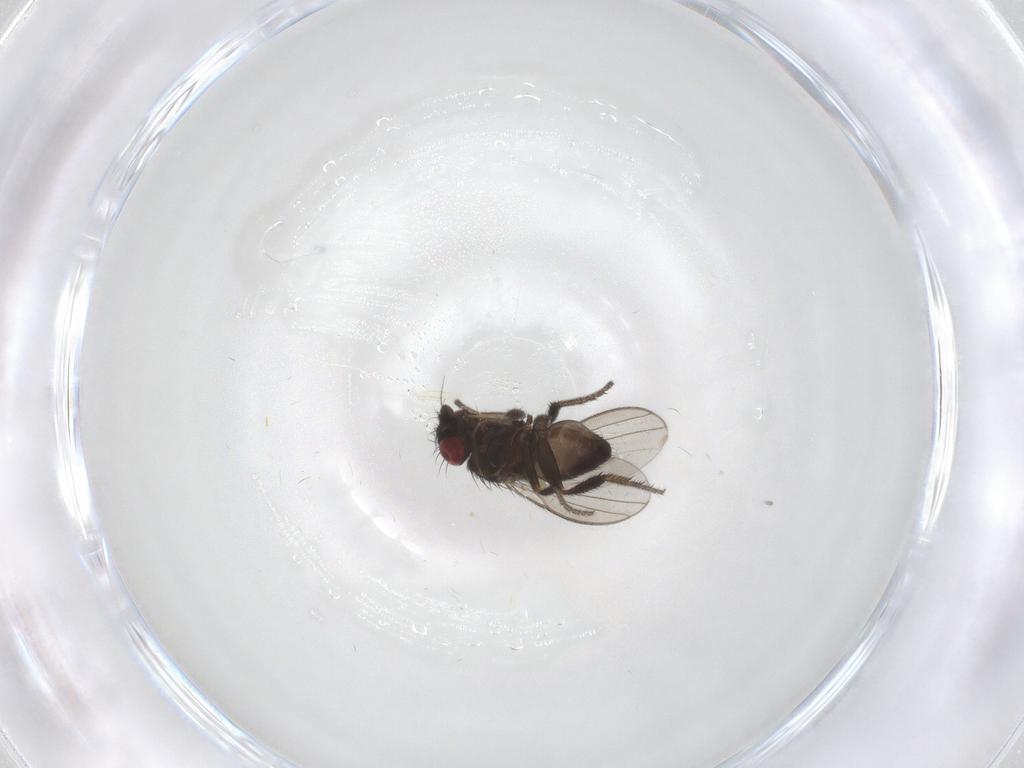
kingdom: Animalia
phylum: Arthropoda
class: Insecta
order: Diptera
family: Milichiidae
